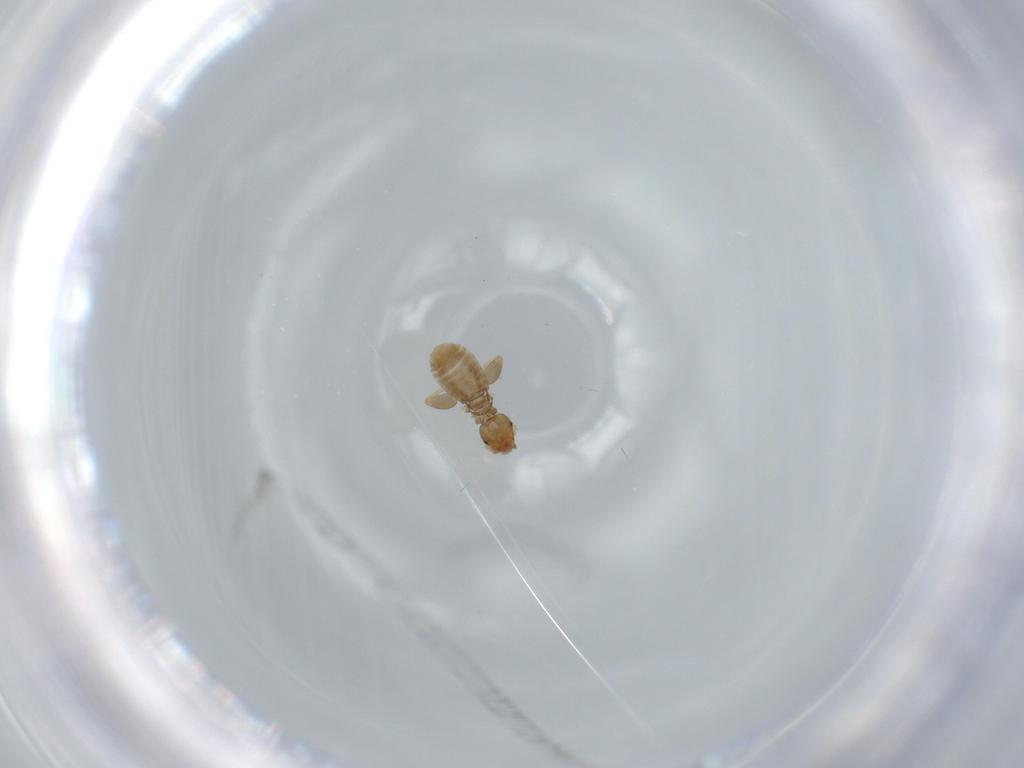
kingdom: Animalia
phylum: Arthropoda
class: Insecta
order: Psocodea
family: Liposcelididae
